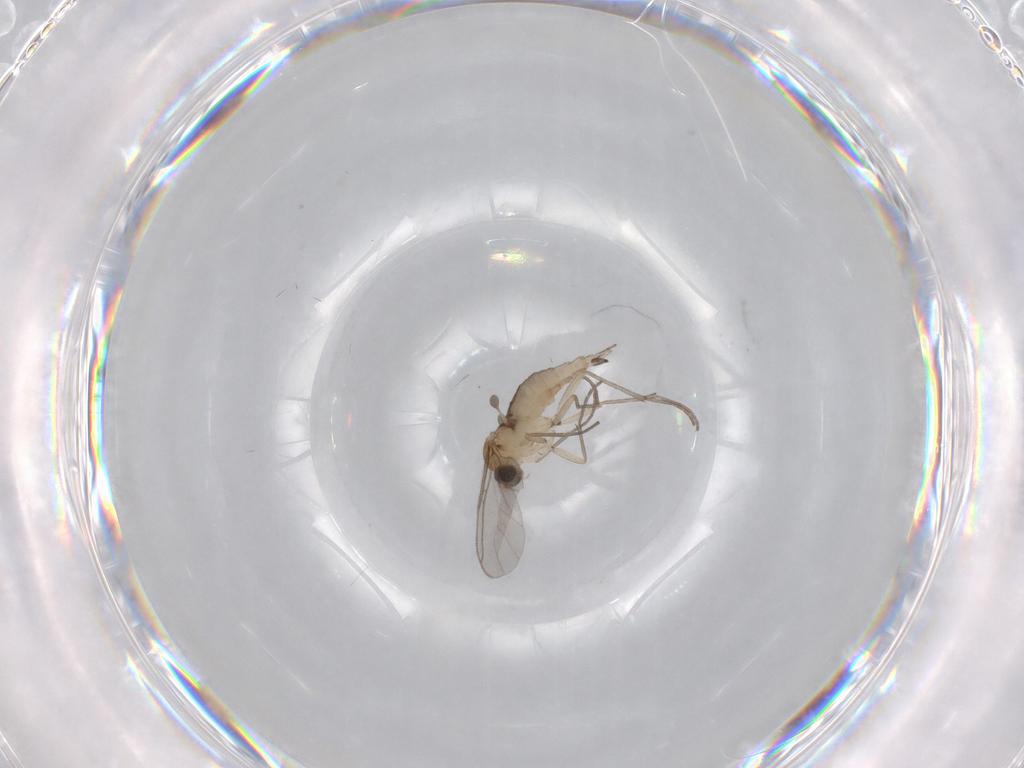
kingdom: Animalia
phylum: Arthropoda
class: Insecta
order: Diptera
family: Sciaridae
